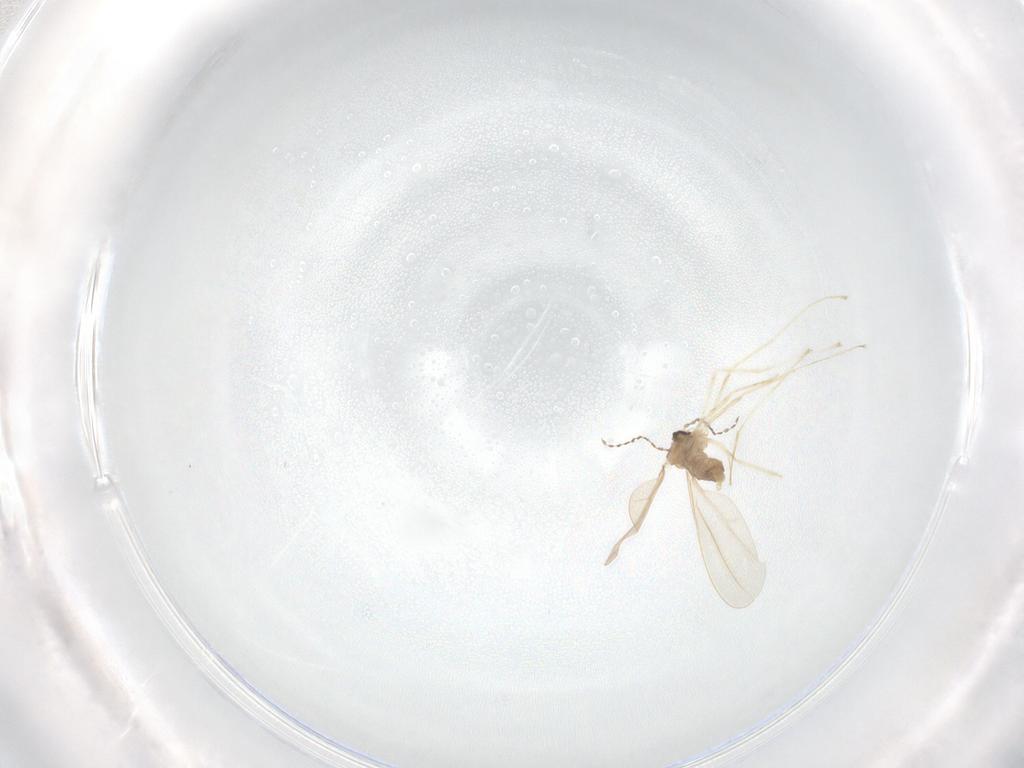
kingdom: Animalia
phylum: Arthropoda
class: Insecta
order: Diptera
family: Cecidomyiidae
